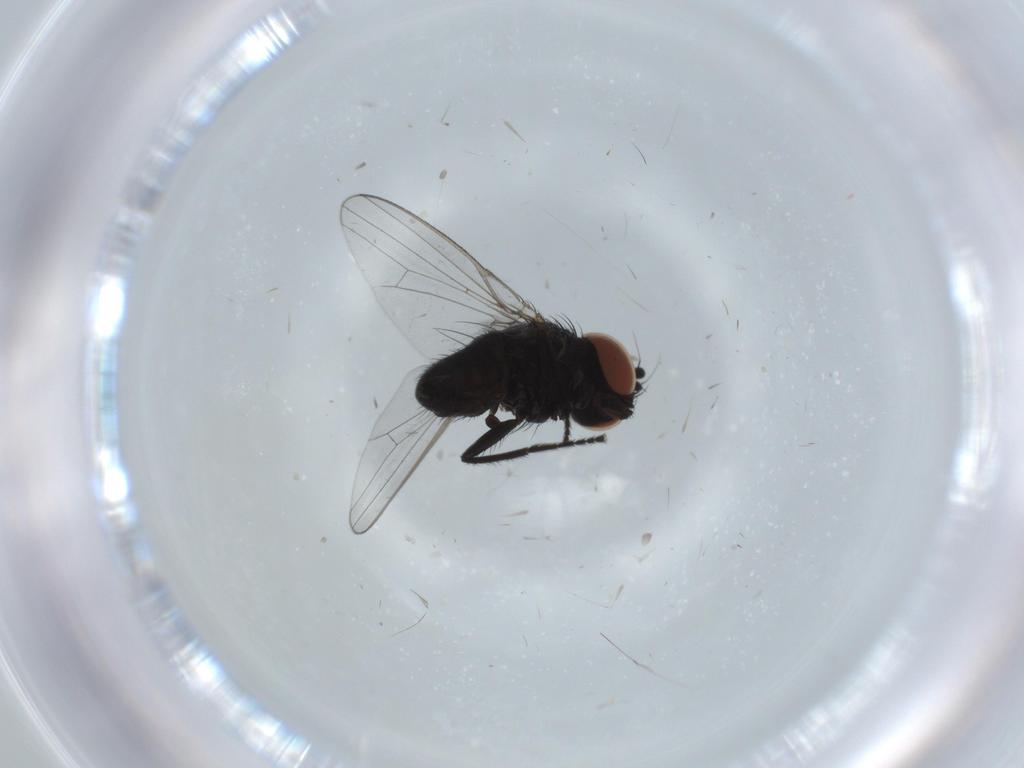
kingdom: Animalia
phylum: Arthropoda
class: Insecta
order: Diptera
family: Milichiidae
